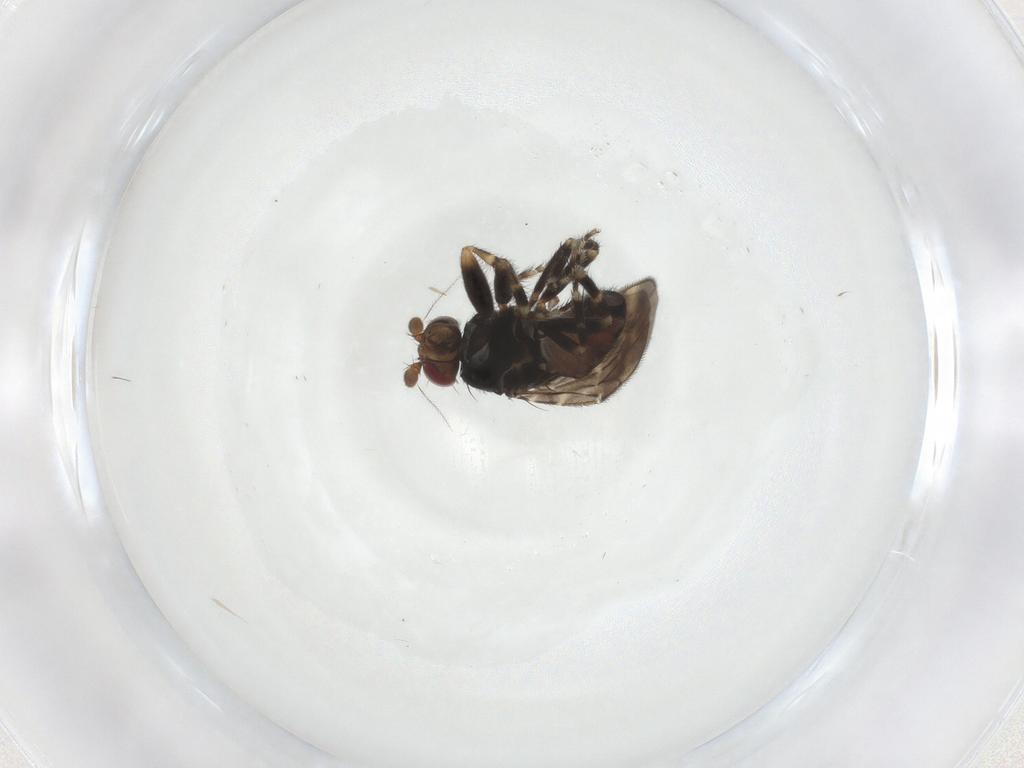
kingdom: Animalia
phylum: Arthropoda
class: Insecta
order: Diptera
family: Sphaeroceridae
